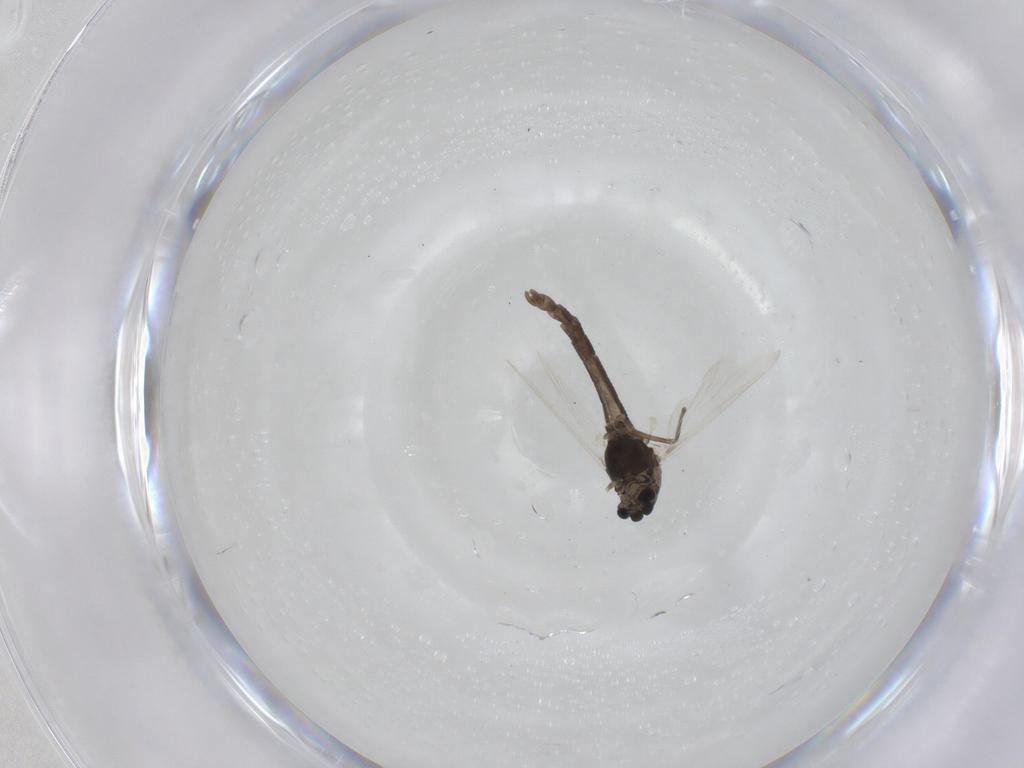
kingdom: Animalia
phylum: Arthropoda
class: Insecta
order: Diptera
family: Chironomidae
